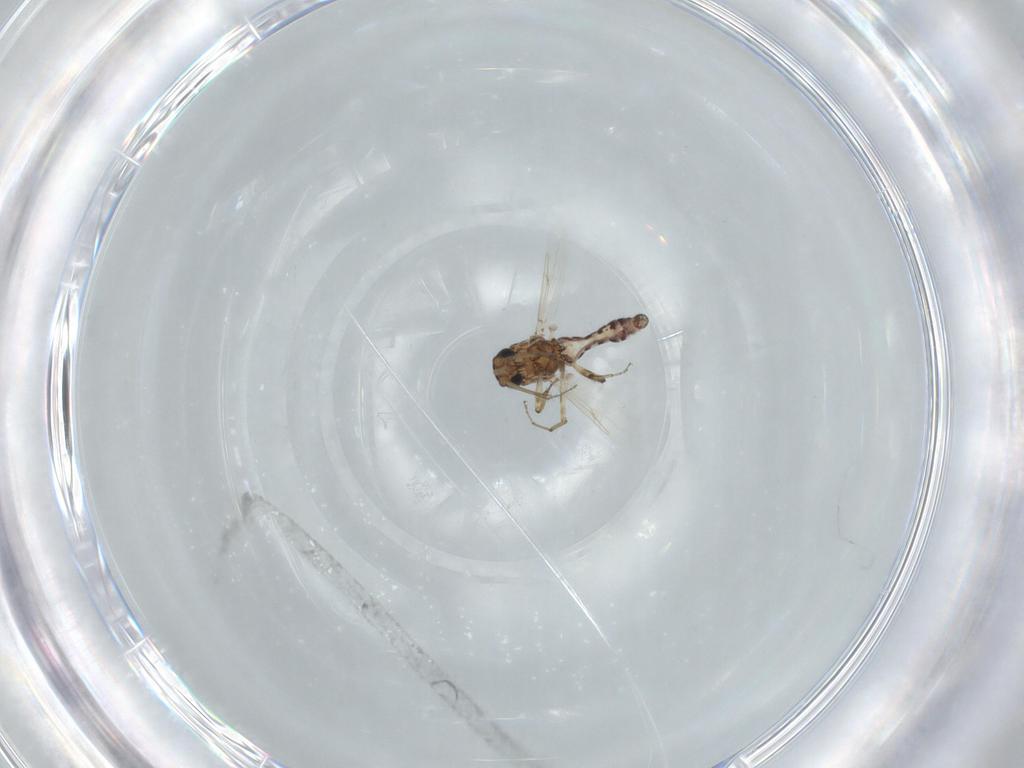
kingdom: Animalia
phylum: Arthropoda
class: Insecta
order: Diptera
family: Ceratopogonidae
